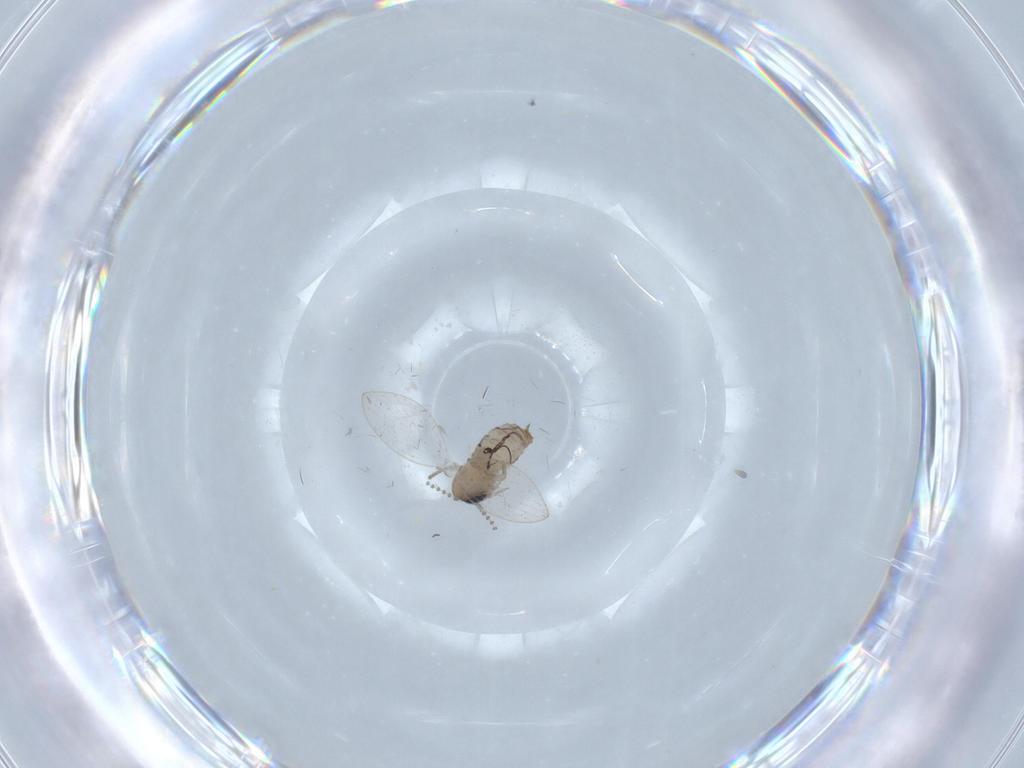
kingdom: Animalia
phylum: Arthropoda
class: Insecta
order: Diptera
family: Psychodidae
